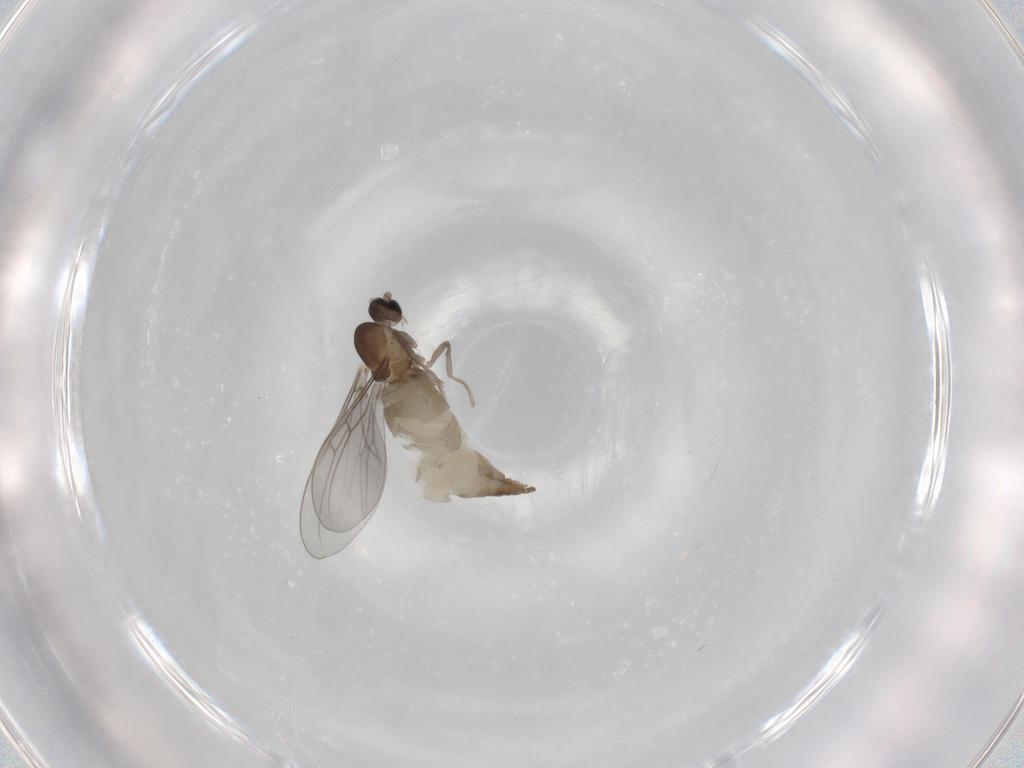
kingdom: Animalia
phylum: Arthropoda
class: Insecta
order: Diptera
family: Cecidomyiidae
